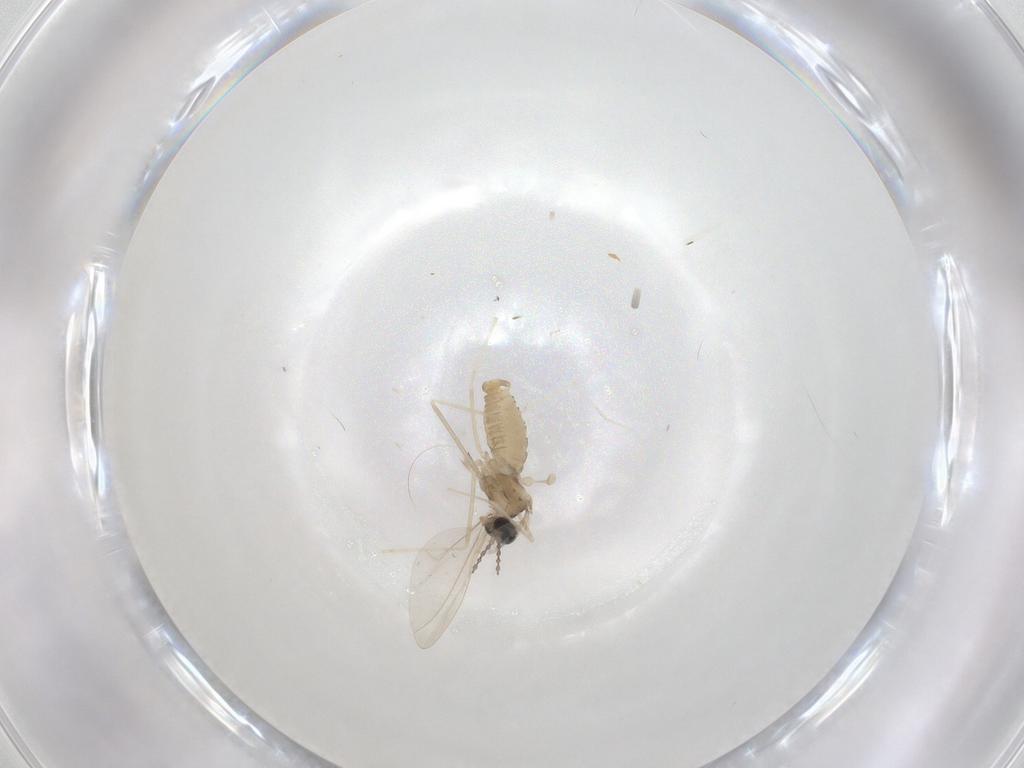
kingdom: Animalia
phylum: Arthropoda
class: Insecta
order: Diptera
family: Cecidomyiidae
